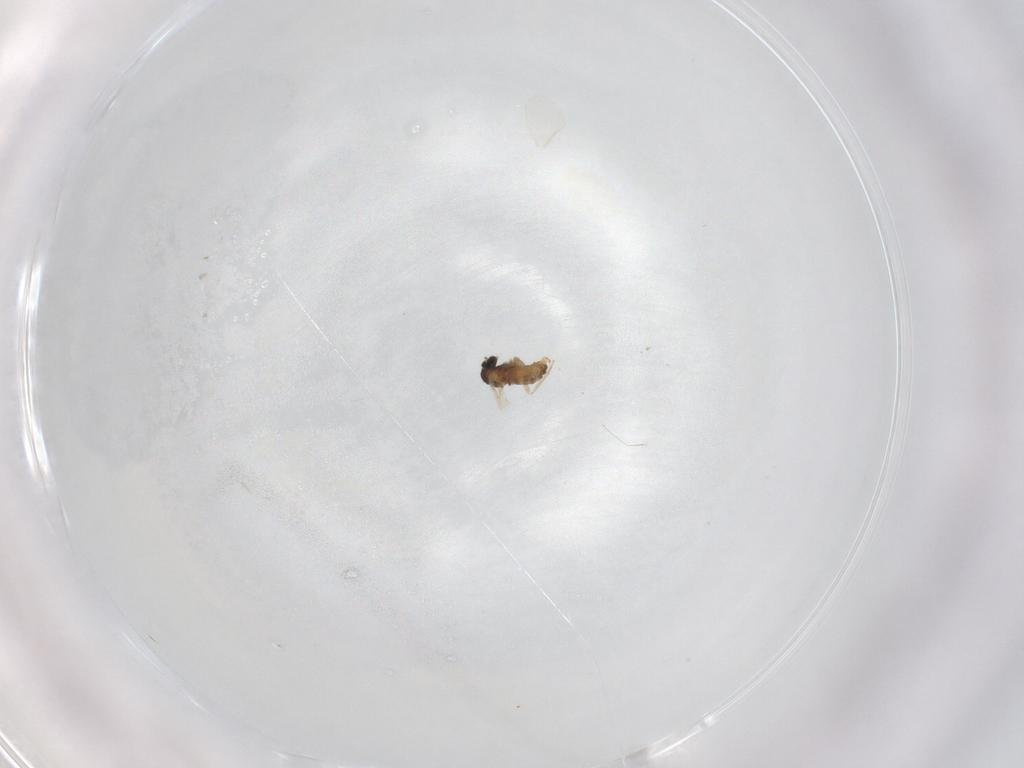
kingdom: Animalia
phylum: Arthropoda
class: Insecta
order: Diptera
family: Cecidomyiidae
